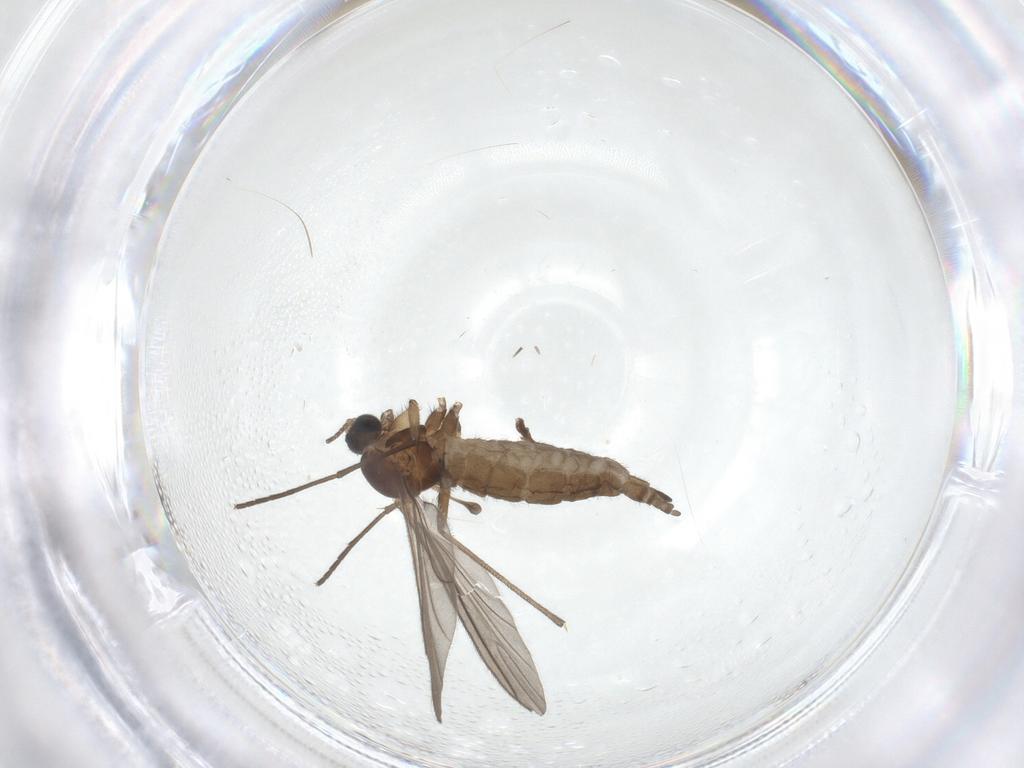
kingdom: Animalia
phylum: Arthropoda
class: Insecta
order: Diptera
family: Sciaridae
